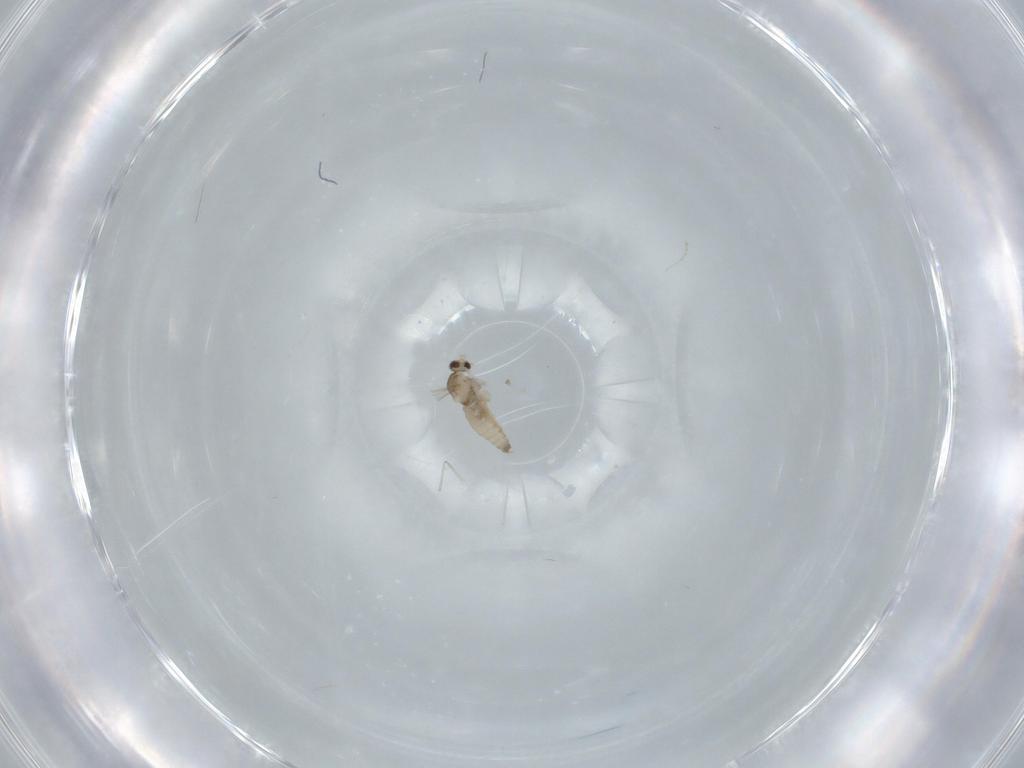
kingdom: Animalia
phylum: Arthropoda
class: Insecta
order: Diptera
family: Cecidomyiidae
